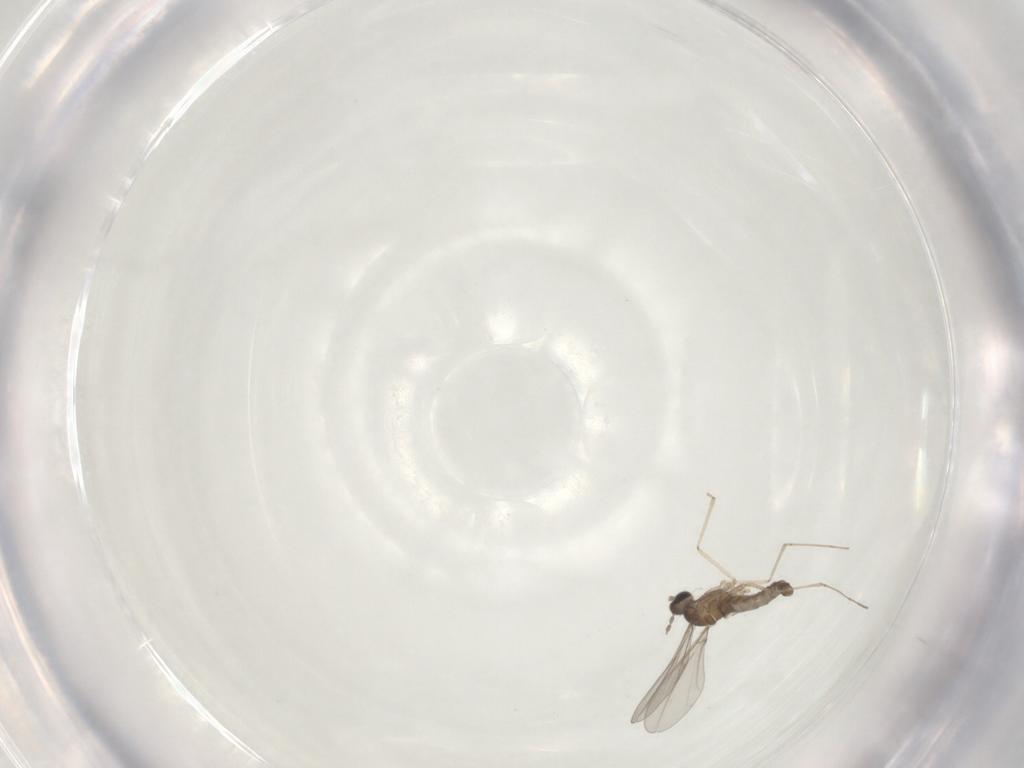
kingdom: Animalia
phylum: Arthropoda
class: Insecta
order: Diptera
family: Cecidomyiidae
